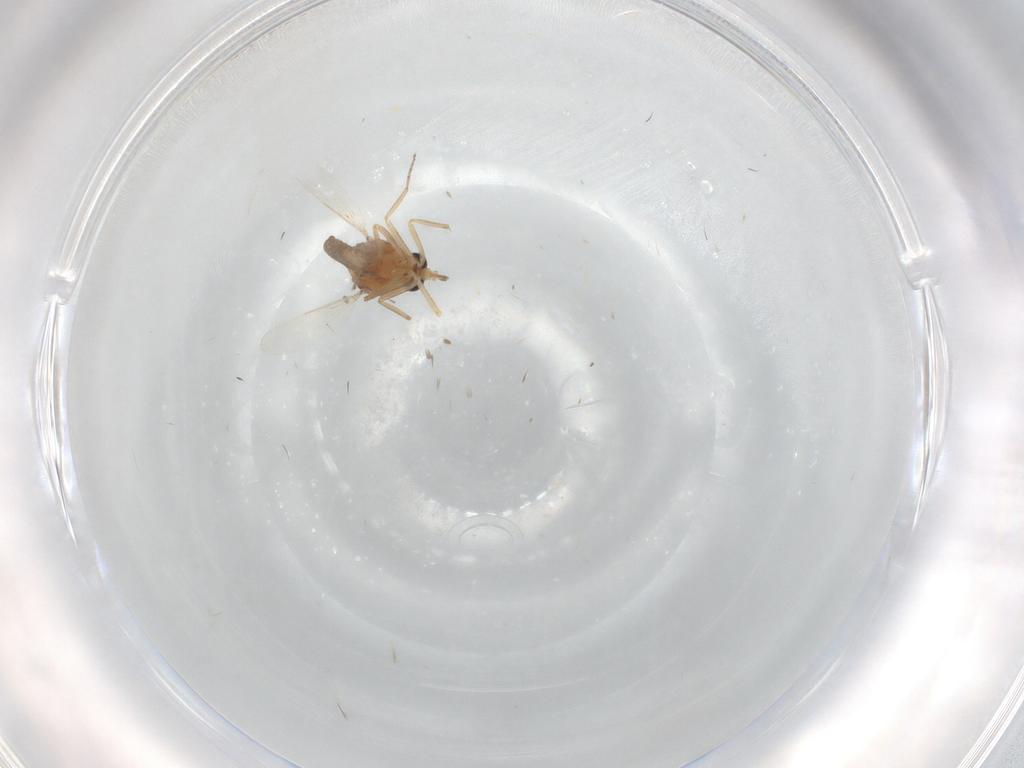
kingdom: Animalia
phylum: Arthropoda
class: Insecta
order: Diptera
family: Ceratopogonidae
